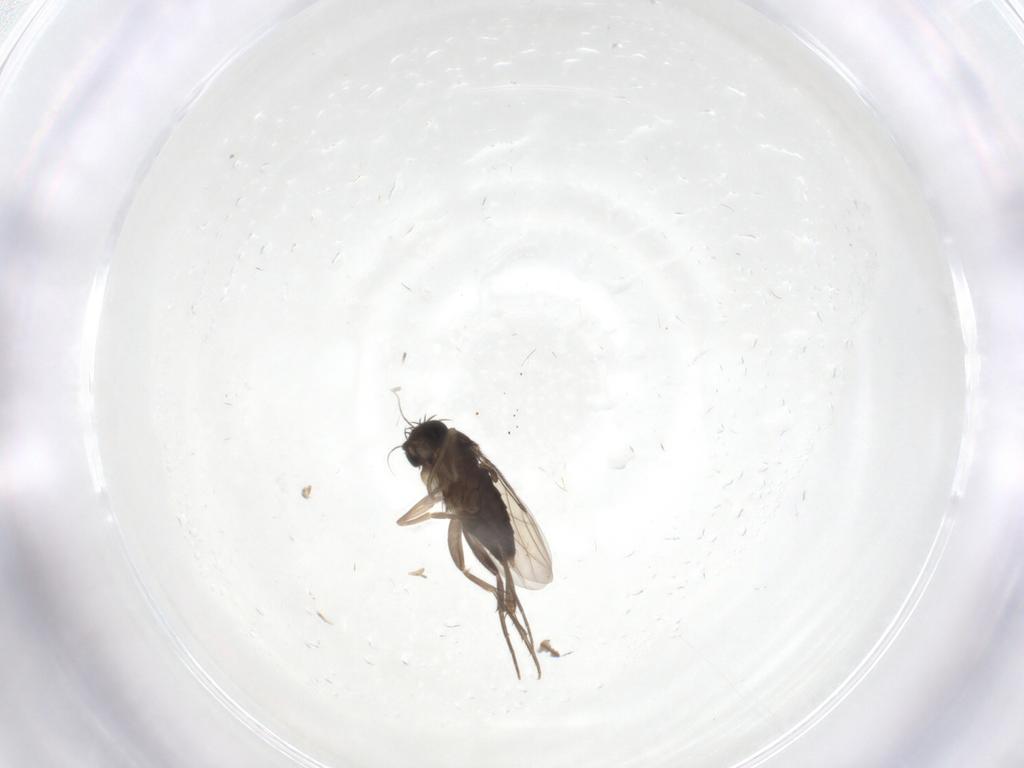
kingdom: Animalia
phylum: Arthropoda
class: Insecta
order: Diptera
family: Phoridae
